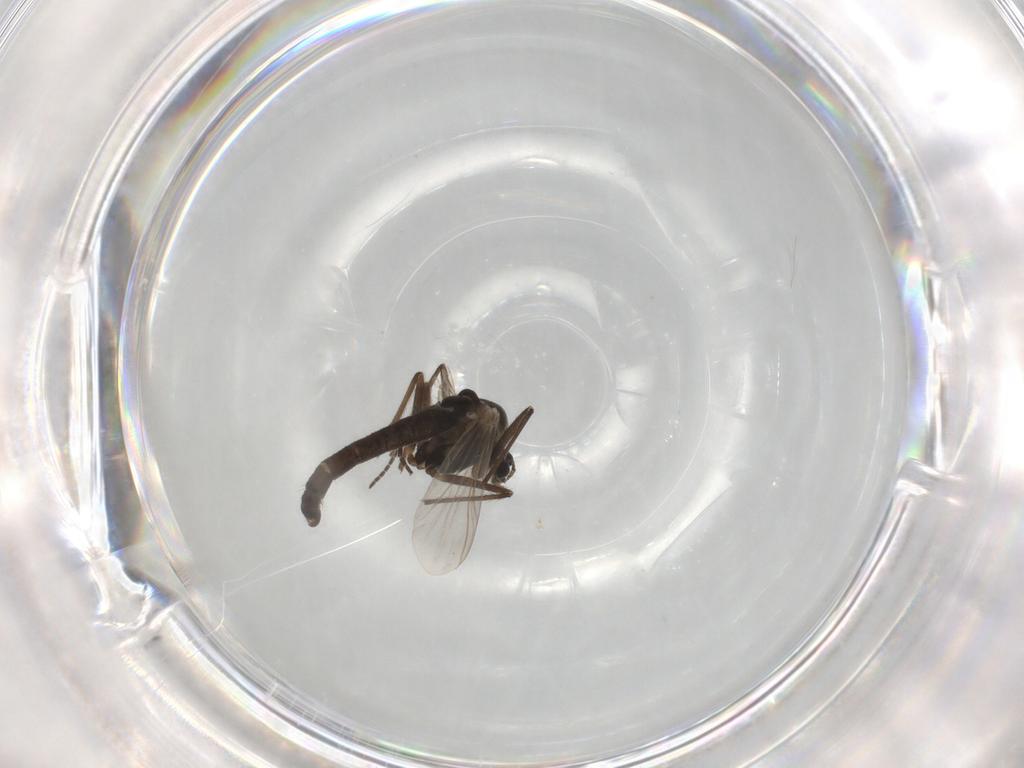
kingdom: Animalia
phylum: Arthropoda
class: Insecta
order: Diptera
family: Chironomidae
